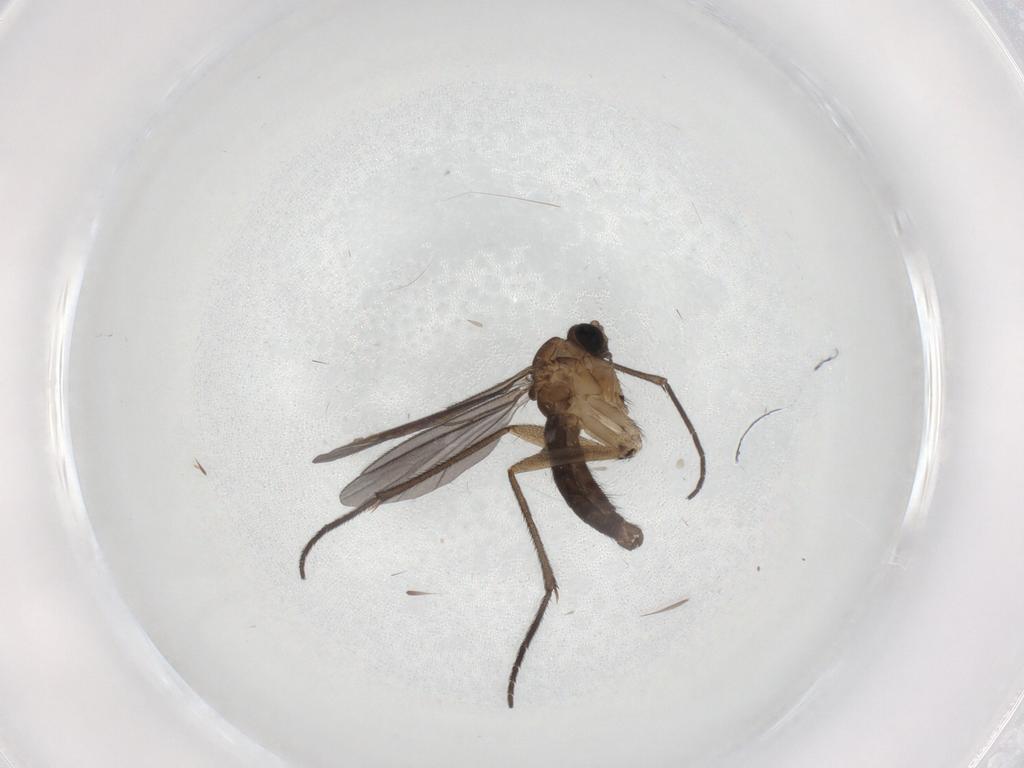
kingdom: Animalia
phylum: Arthropoda
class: Insecta
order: Diptera
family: Sciaridae
